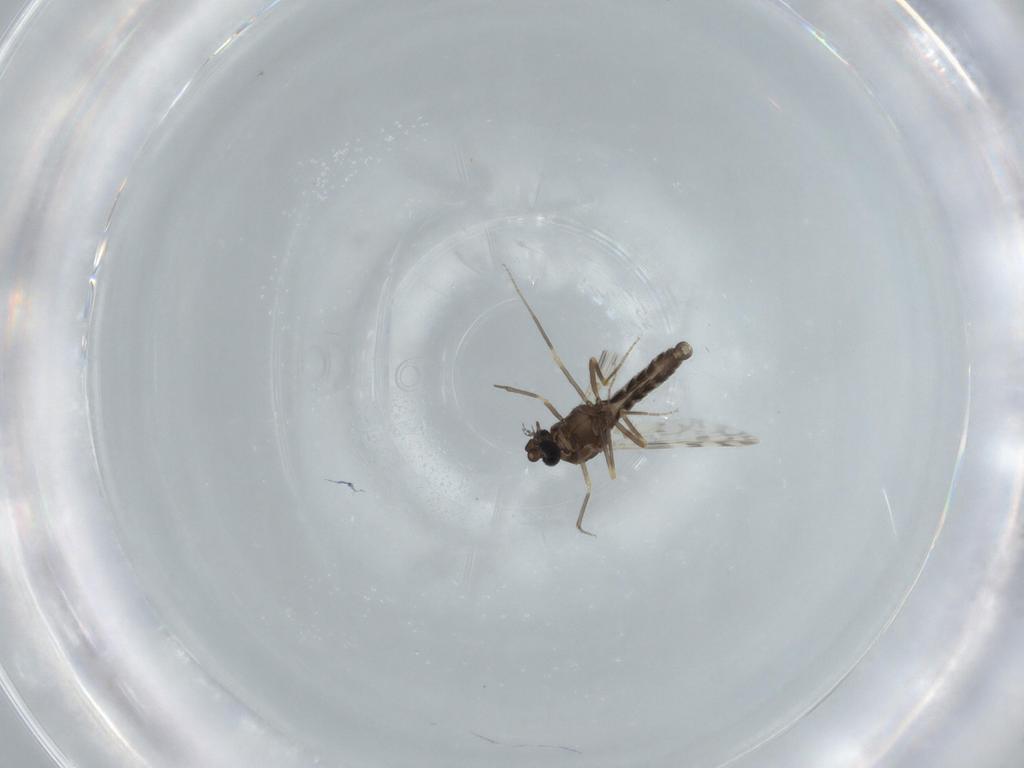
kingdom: Animalia
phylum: Arthropoda
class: Insecta
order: Diptera
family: Ceratopogonidae
